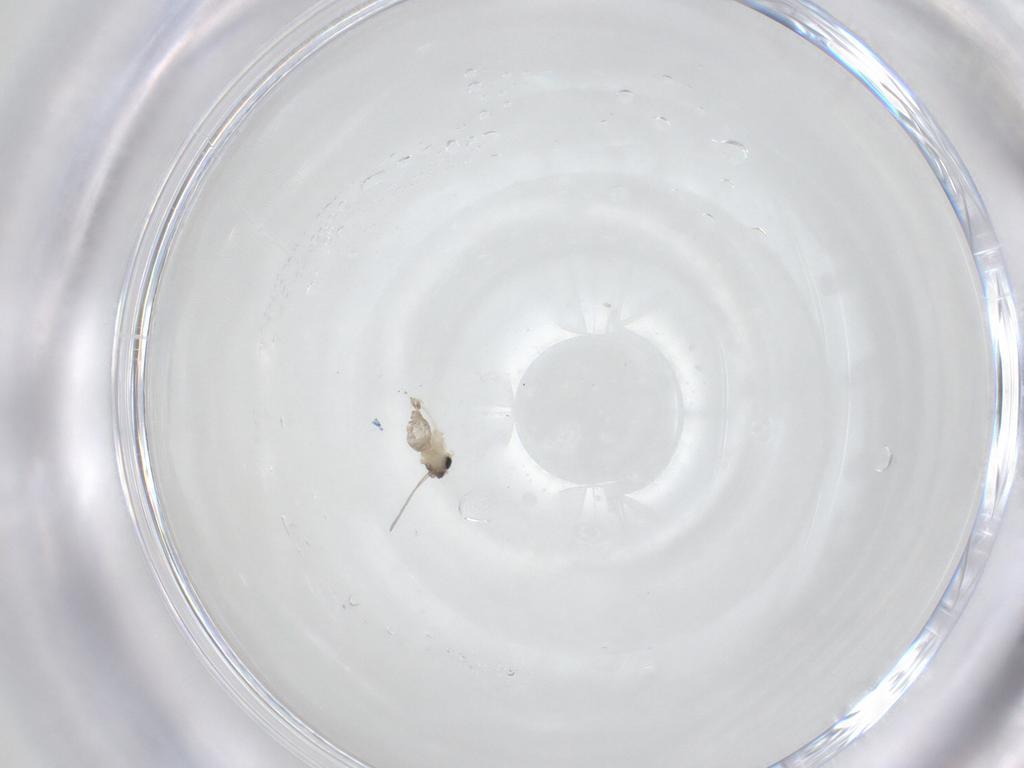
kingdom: Animalia
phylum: Arthropoda
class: Insecta
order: Diptera
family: Cecidomyiidae
